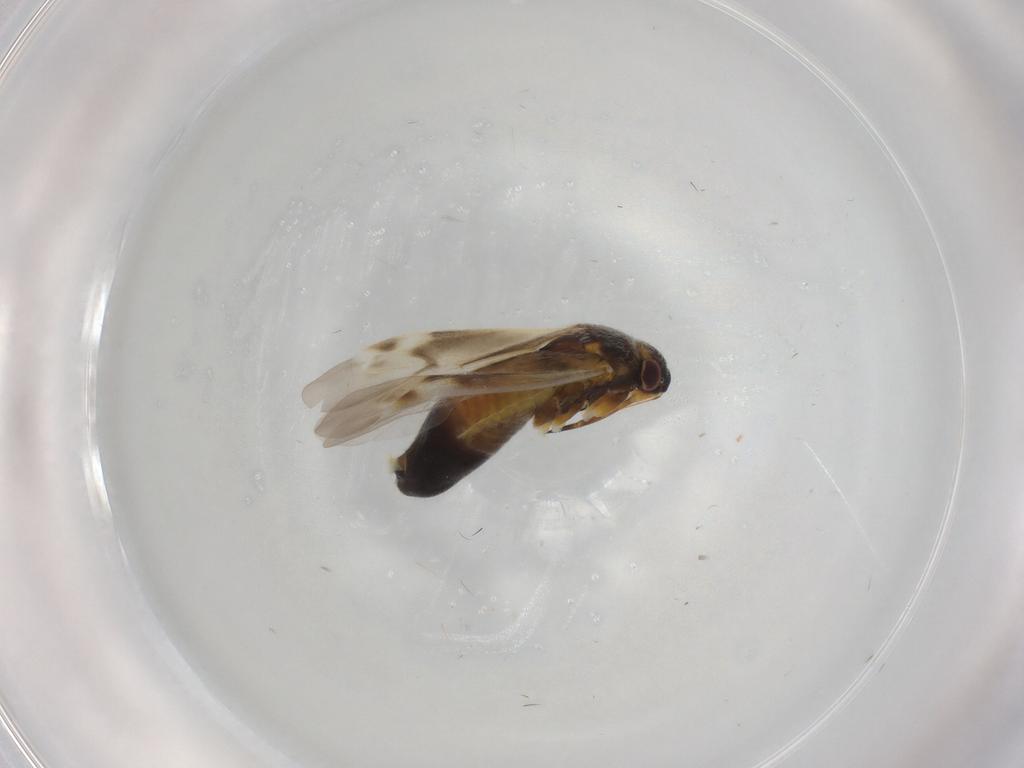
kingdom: Animalia
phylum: Arthropoda
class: Insecta
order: Hemiptera
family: Miridae
